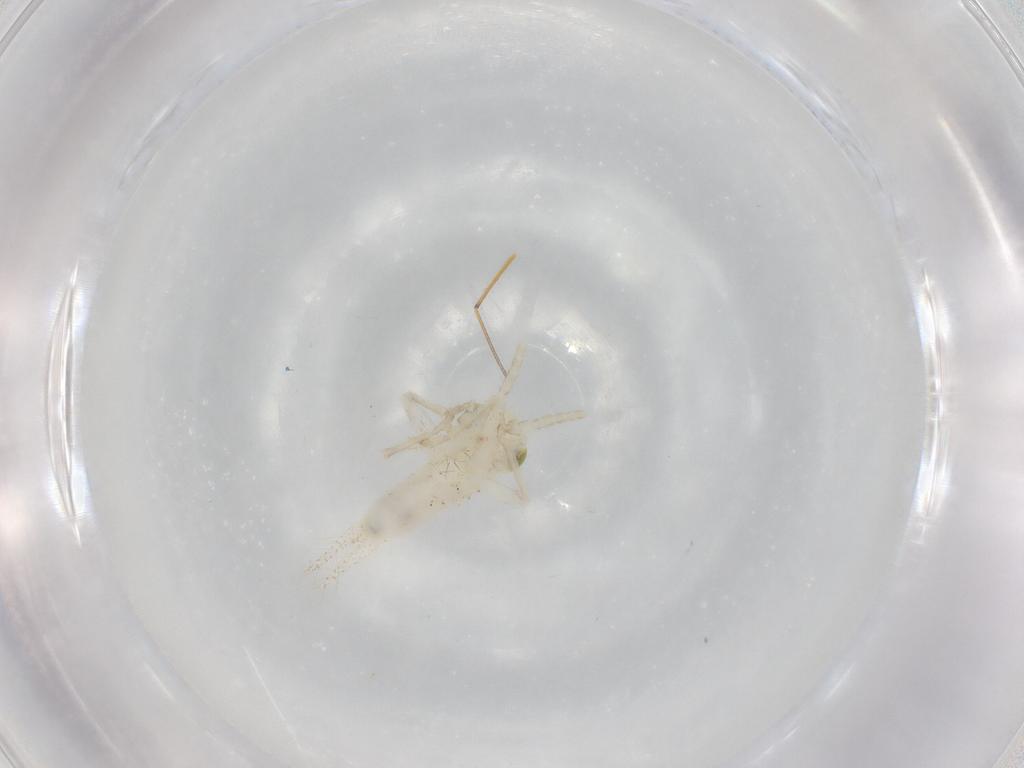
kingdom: Animalia
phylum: Arthropoda
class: Insecta
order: Orthoptera
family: Trigonidiidae
